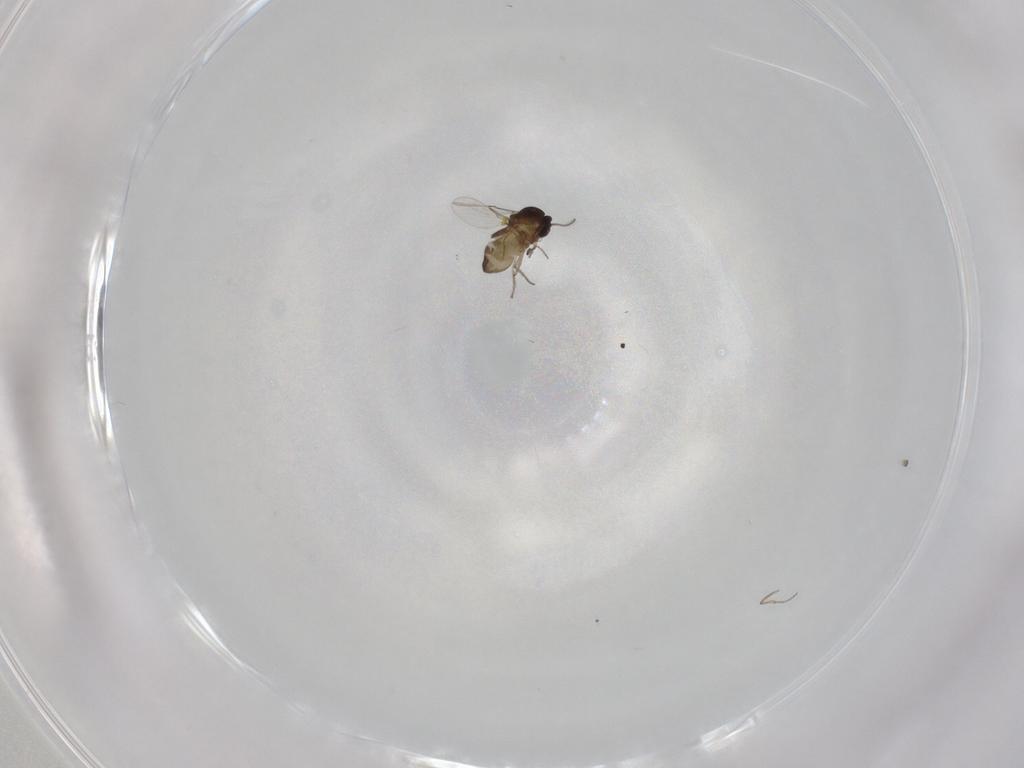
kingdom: Animalia
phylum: Arthropoda
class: Insecta
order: Diptera
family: Ceratopogonidae
